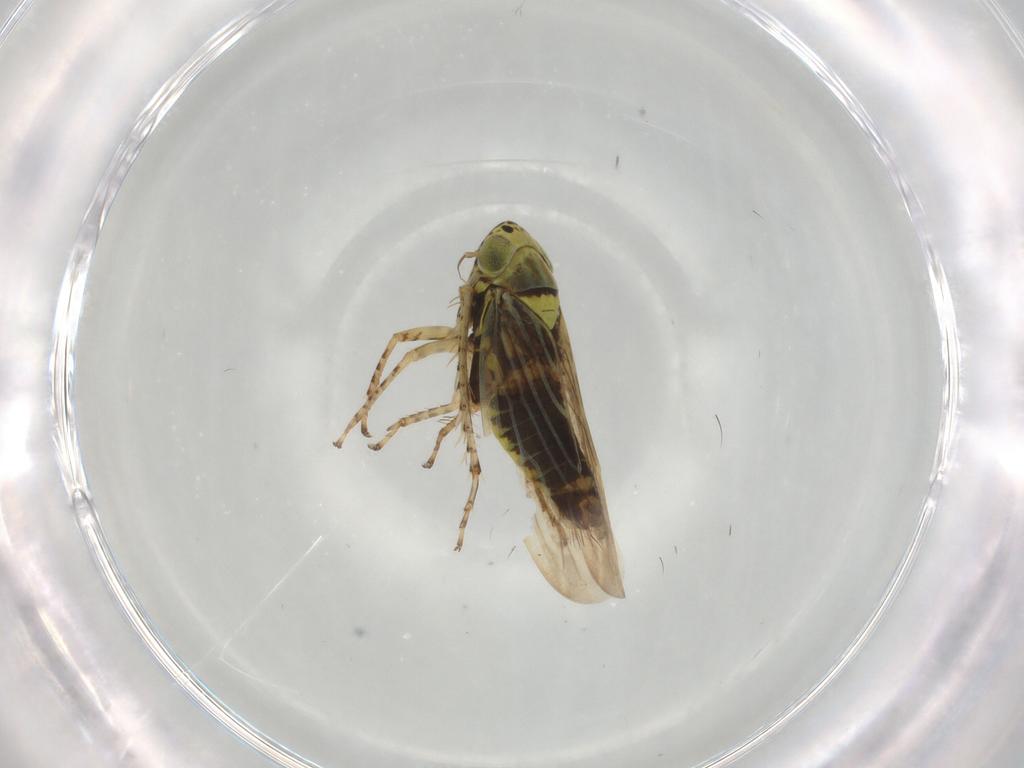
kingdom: Animalia
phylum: Arthropoda
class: Insecta
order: Hemiptera
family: Cicadellidae
